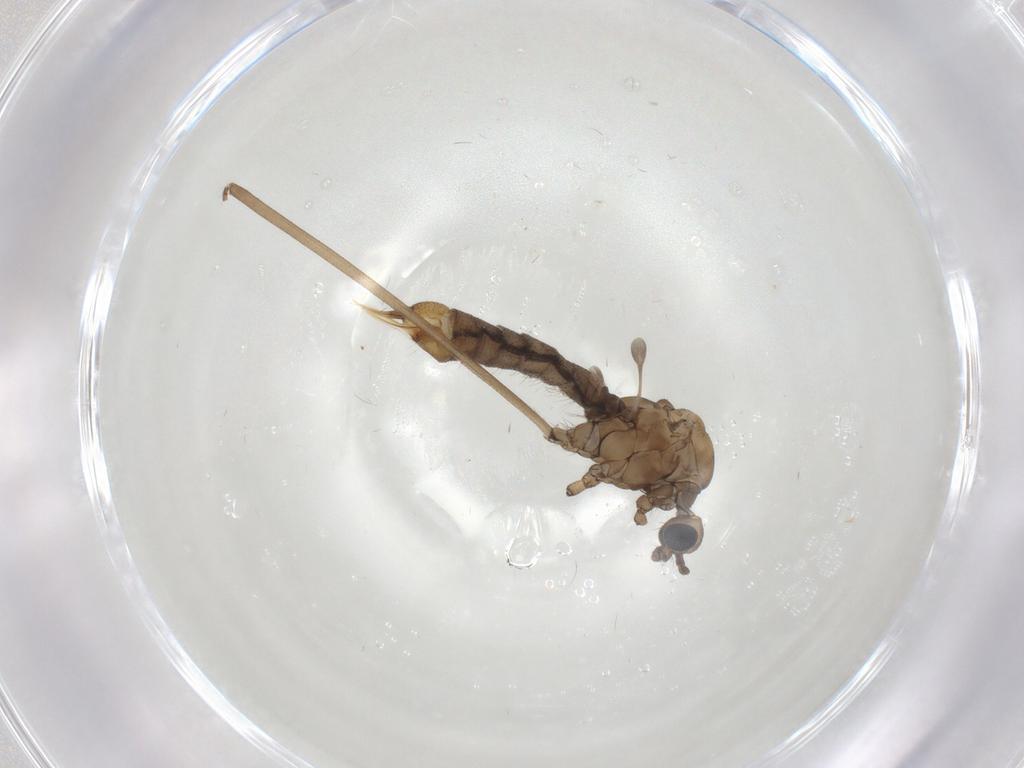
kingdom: Animalia
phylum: Arthropoda
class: Insecta
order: Diptera
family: Limoniidae
